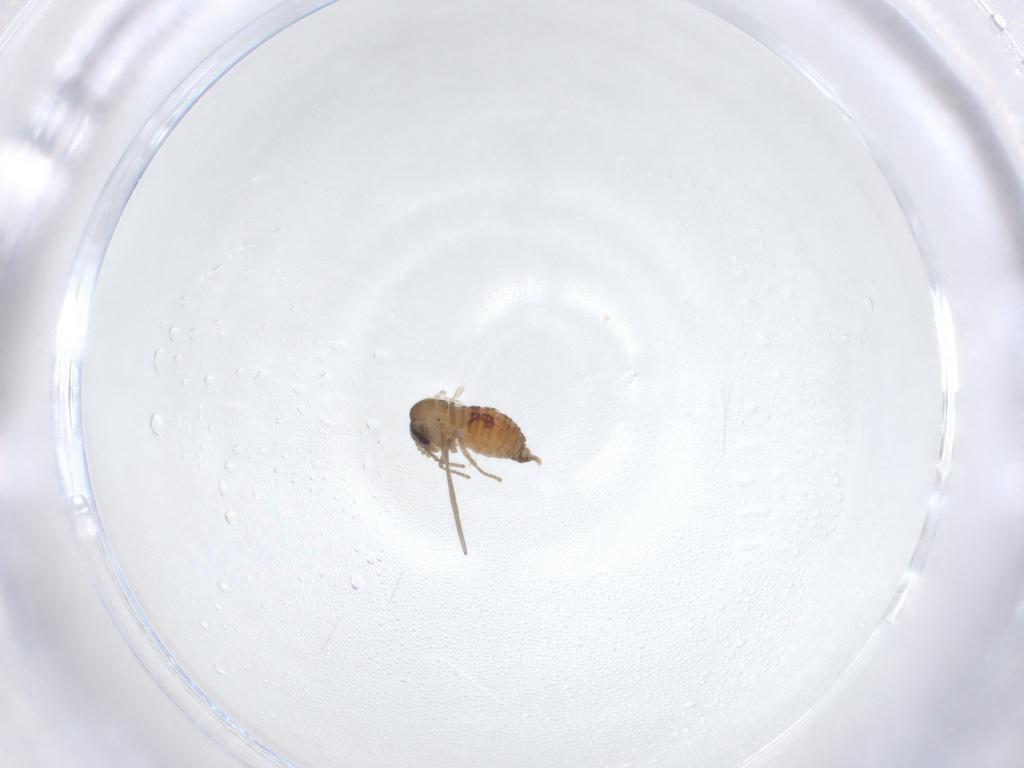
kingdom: Animalia
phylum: Arthropoda
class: Insecta
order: Diptera
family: Psychodidae
